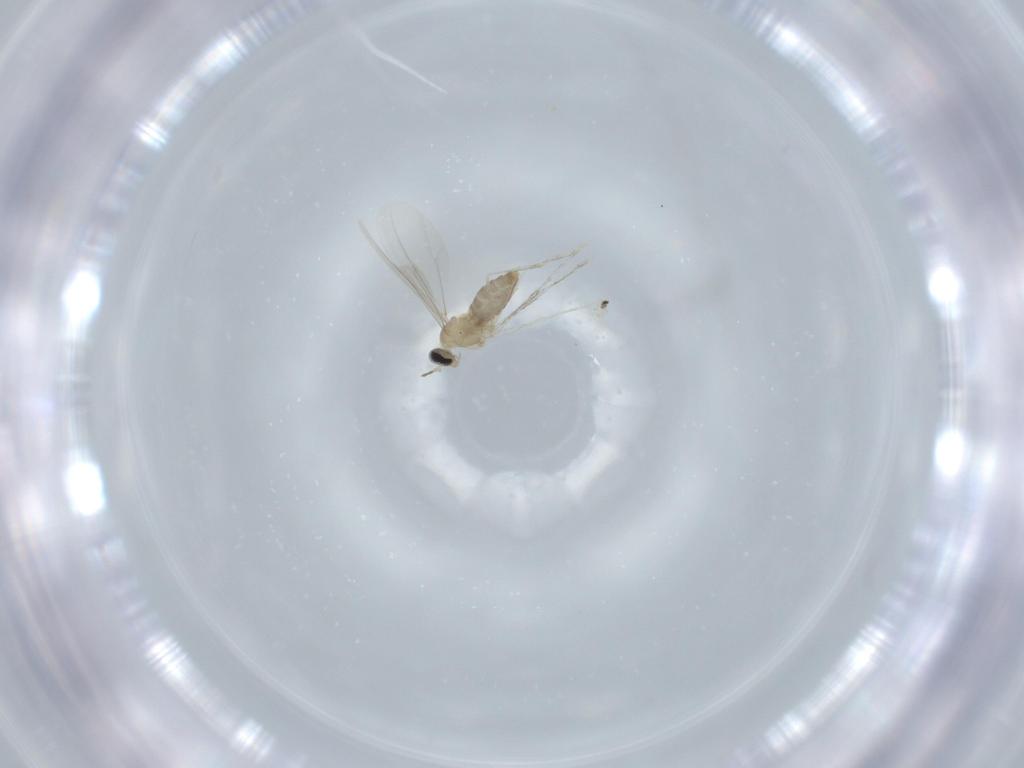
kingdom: Animalia
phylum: Arthropoda
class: Insecta
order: Diptera
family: Cecidomyiidae
